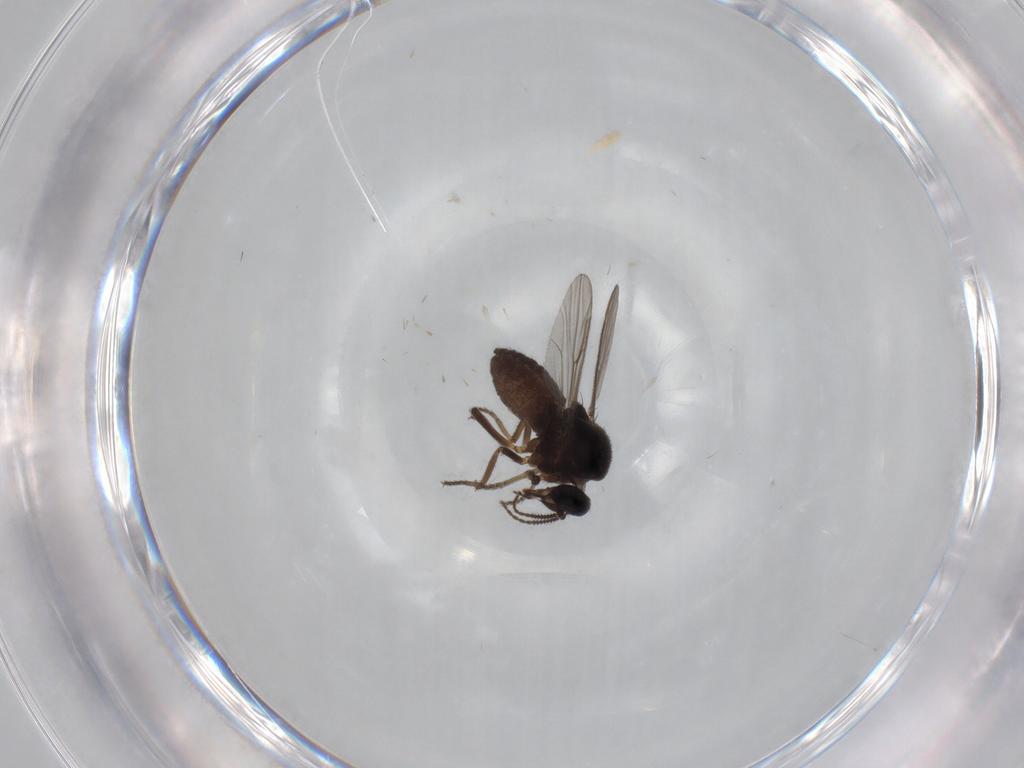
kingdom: Animalia
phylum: Arthropoda
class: Insecta
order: Diptera
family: Ceratopogonidae
